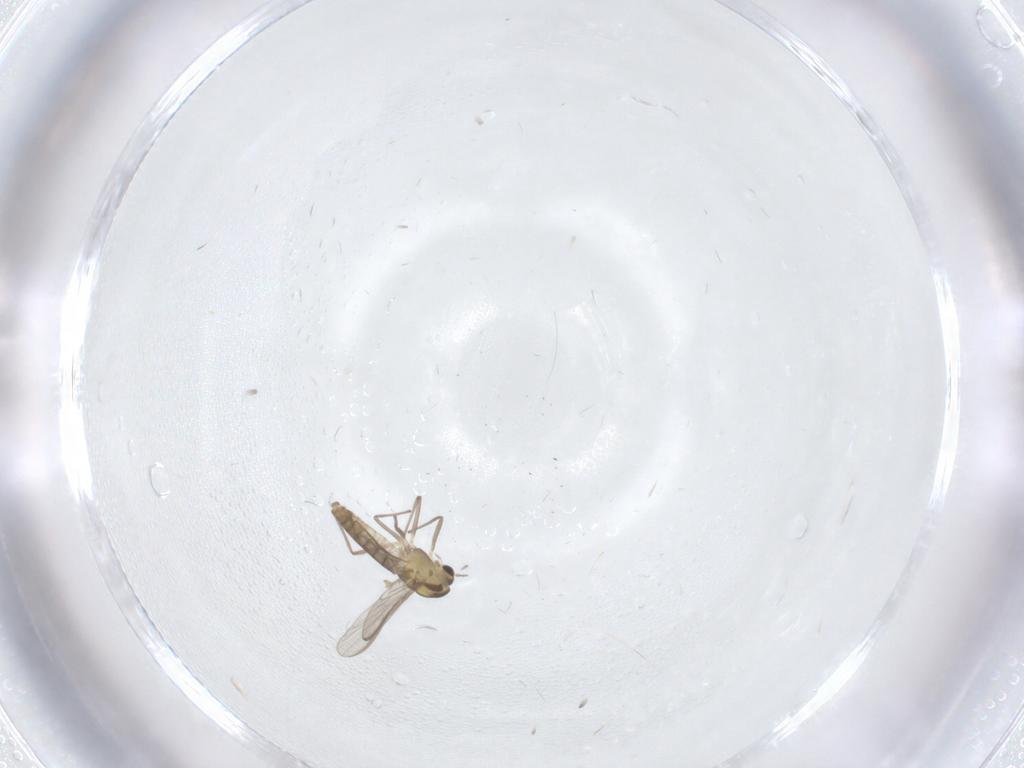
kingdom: Animalia
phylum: Arthropoda
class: Insecta
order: Diptera
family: Chironomidae
